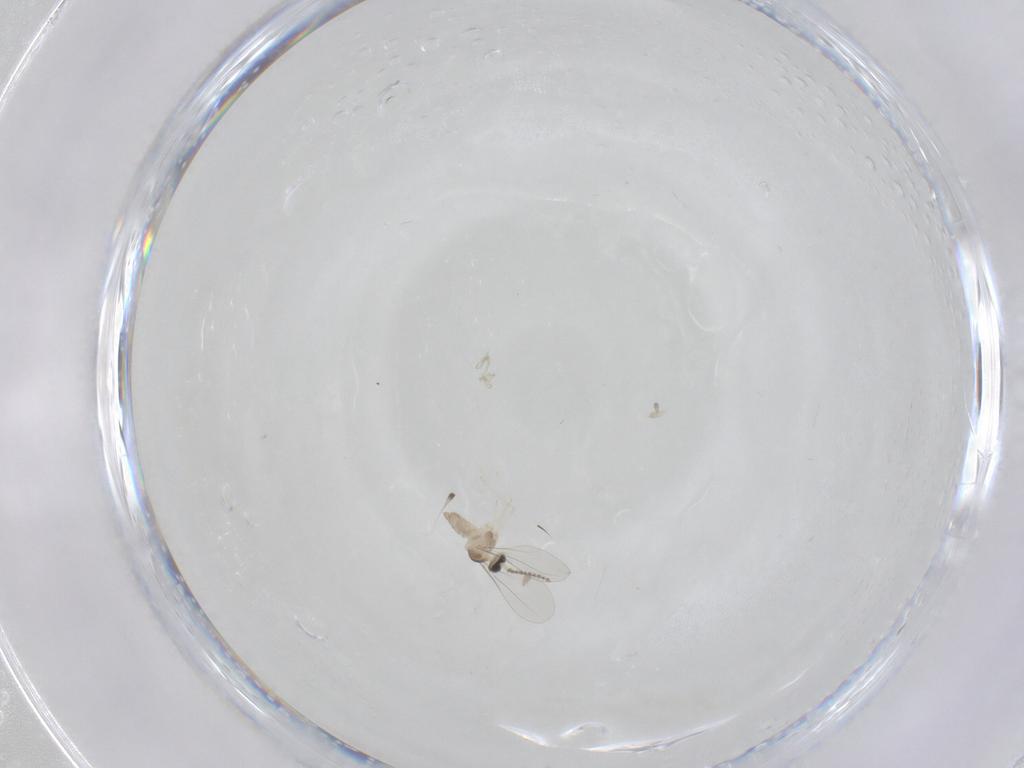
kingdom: Animalia
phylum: Arthropoda
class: Insecta
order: Diptera
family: Cecidomyiidae
